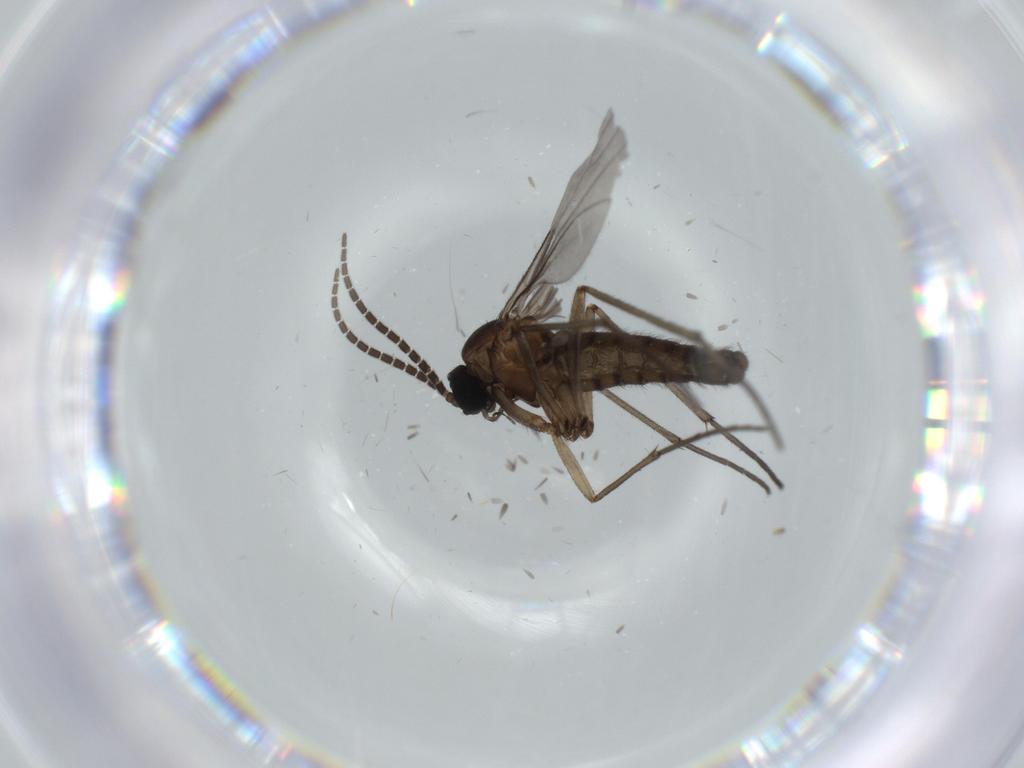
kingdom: Animalia
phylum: Arthropoda
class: Insecta
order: Diptera
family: Sciaridae
